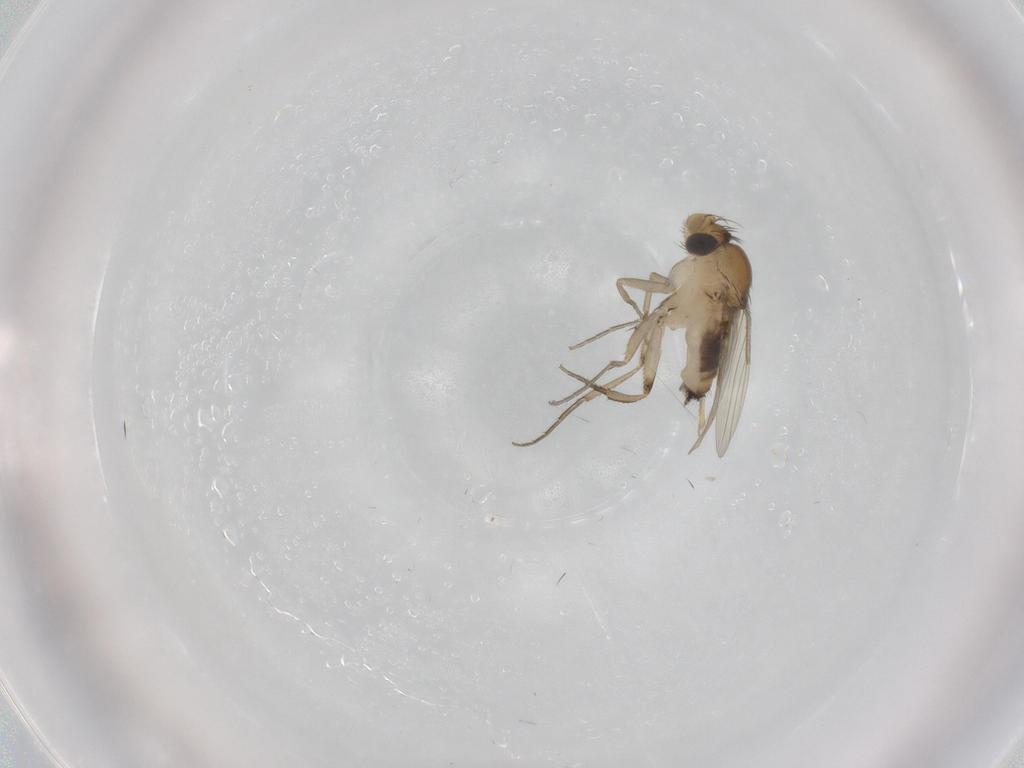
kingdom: Animalia
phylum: Arthropoda
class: Insecta
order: Diptera
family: Phoridae
